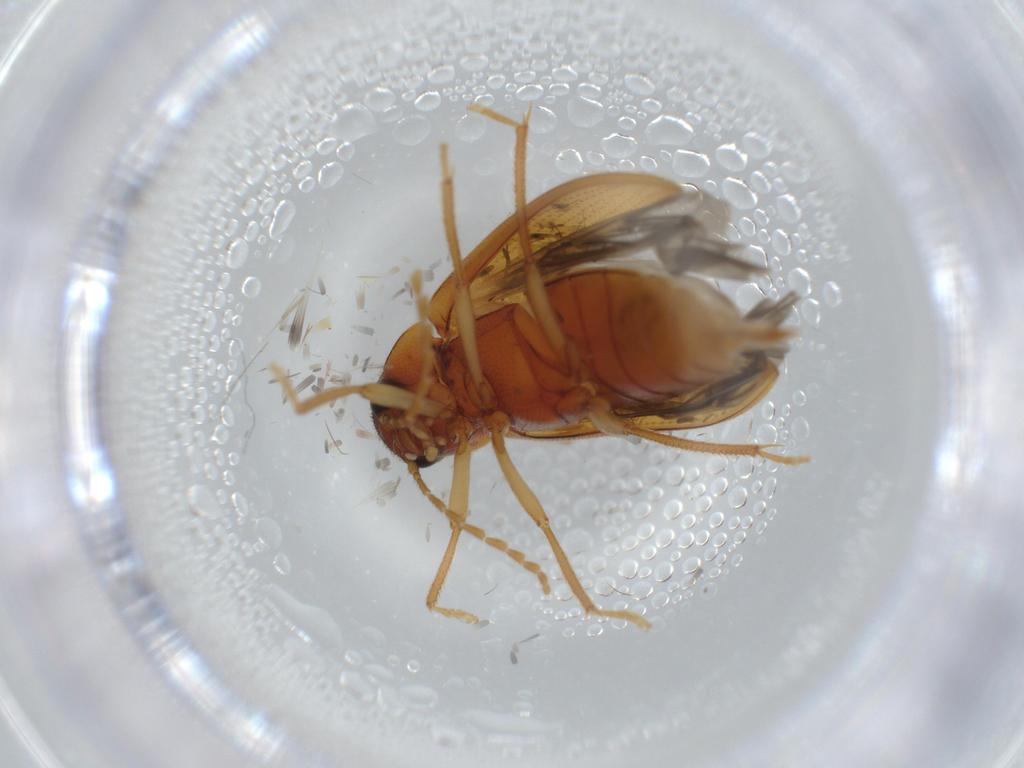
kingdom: Animalia
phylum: Arthropoda
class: Insecta
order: Coleoptera
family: Ptilodactylidae
